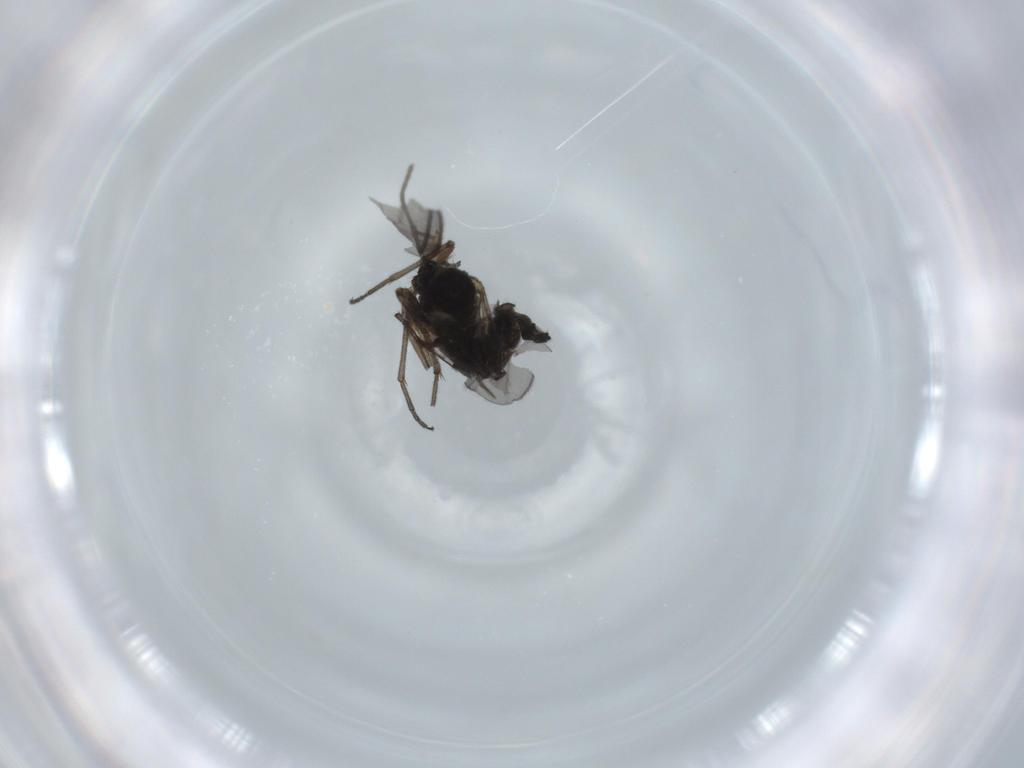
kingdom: Animalia
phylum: Arthropoda
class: Insecta
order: Diptera
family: Sciaridae
